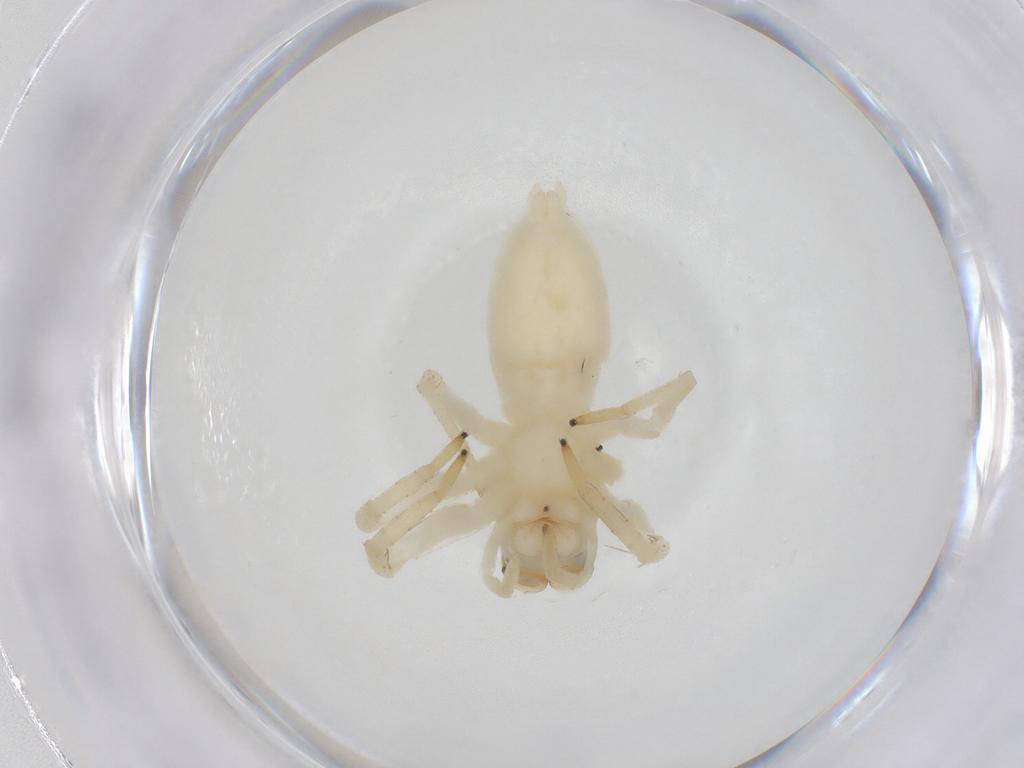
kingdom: Animalia
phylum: Arthropoda
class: Arachnida
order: Araneae
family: Salticidae
